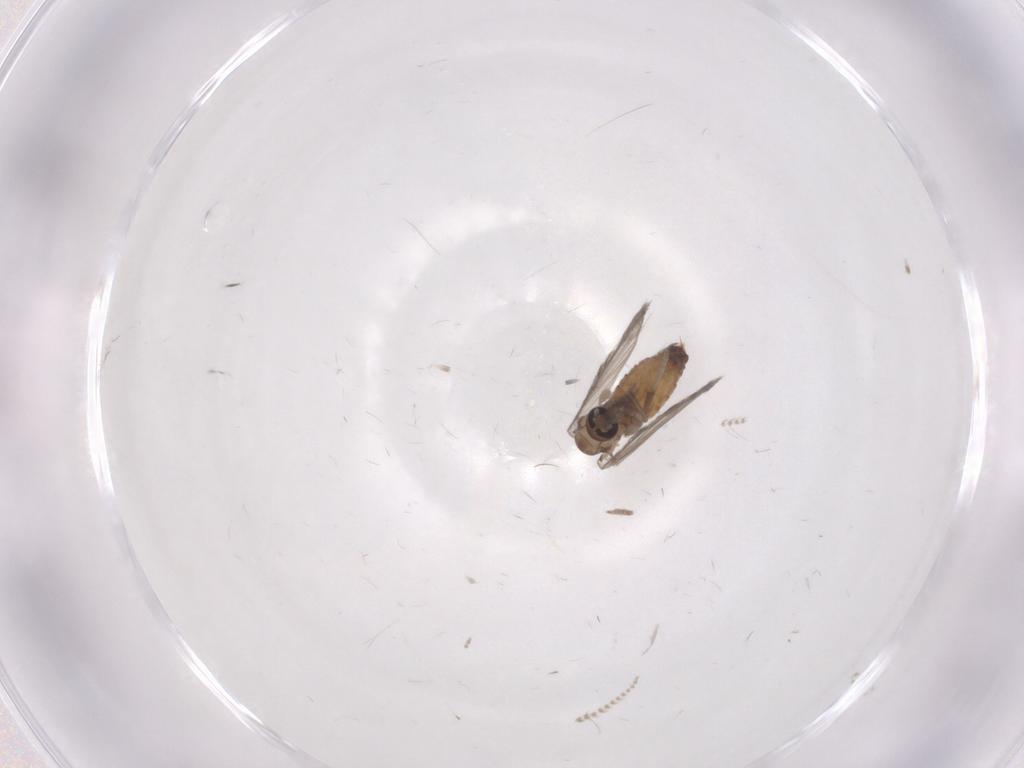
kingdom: Animalia
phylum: Arthropoda
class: Insecta
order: Diptera
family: Psychodidae
